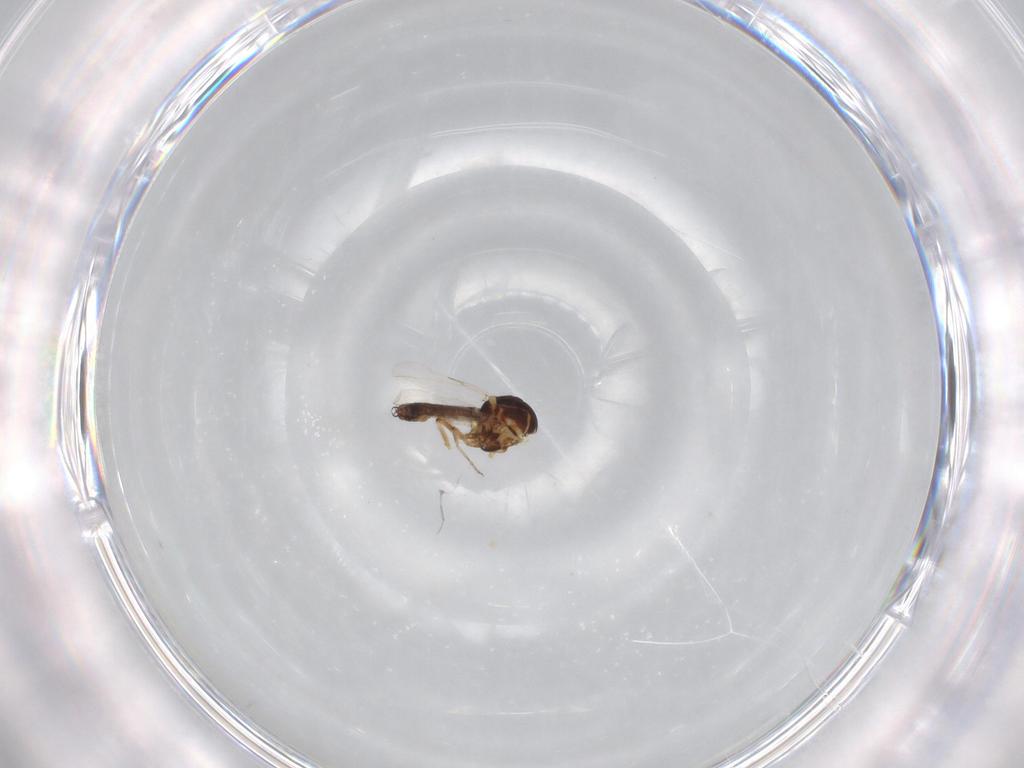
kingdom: Animalia
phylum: Arthropoda
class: Insecta
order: Diptera
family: Ceratopogonidae
